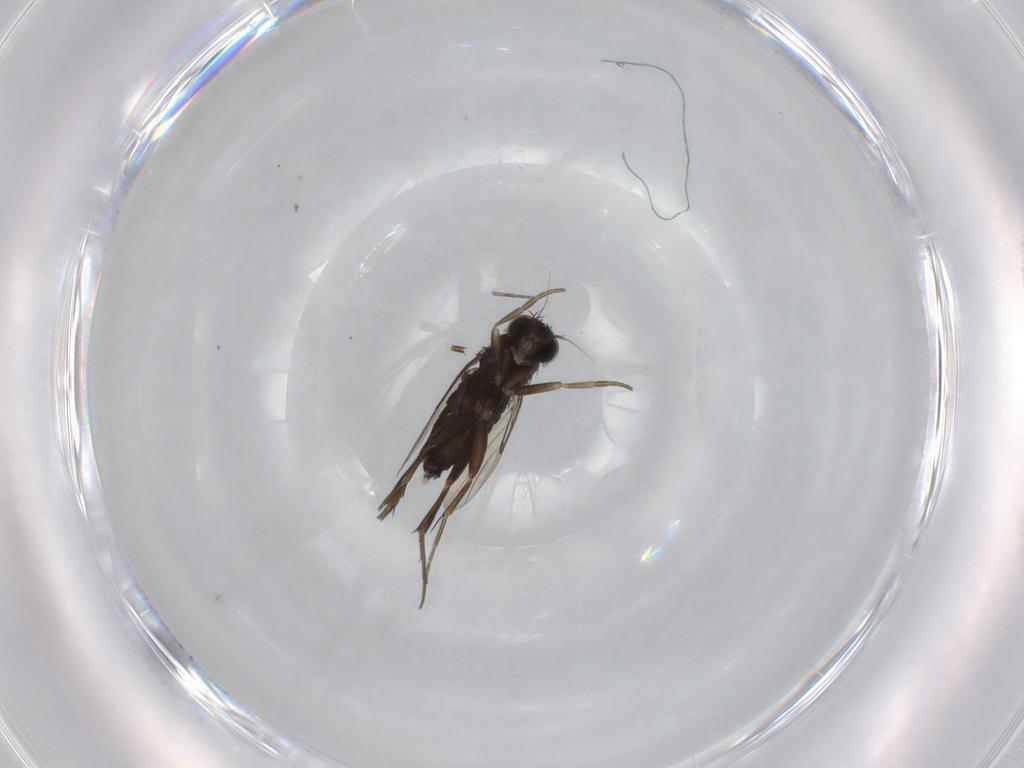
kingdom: Animalia
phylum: Arthropoda
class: Insecta
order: Diptera
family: Phoridae
